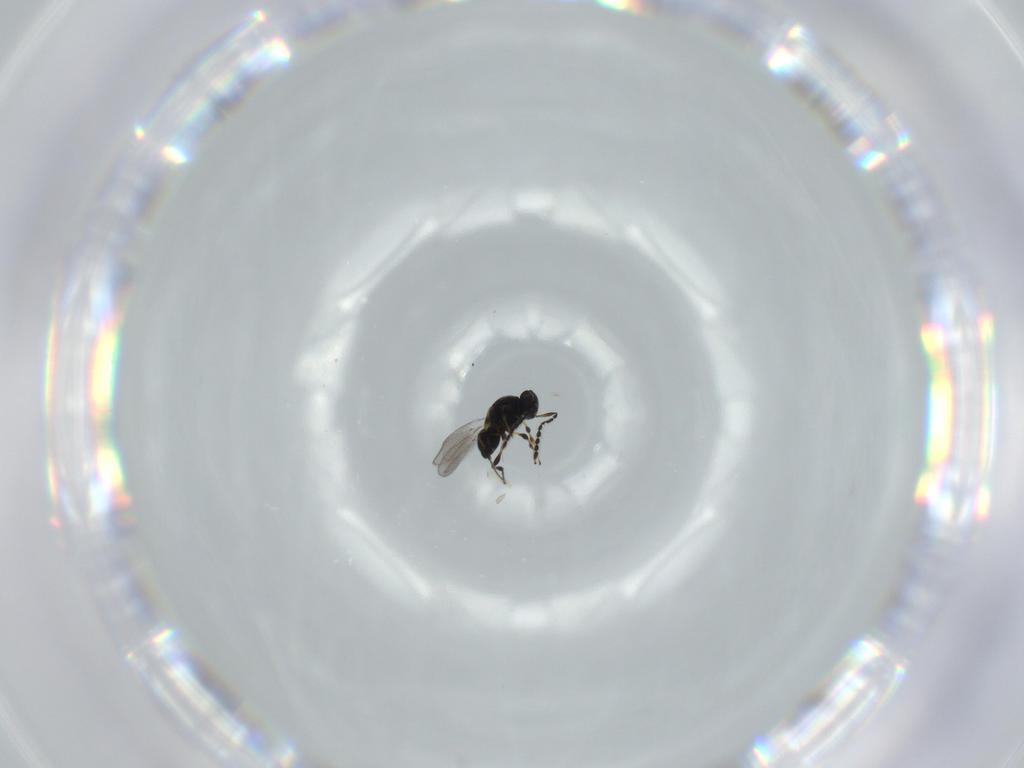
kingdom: Animalia
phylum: Arthropoda
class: Insecta
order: Hymenoptera
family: Platygastridae
